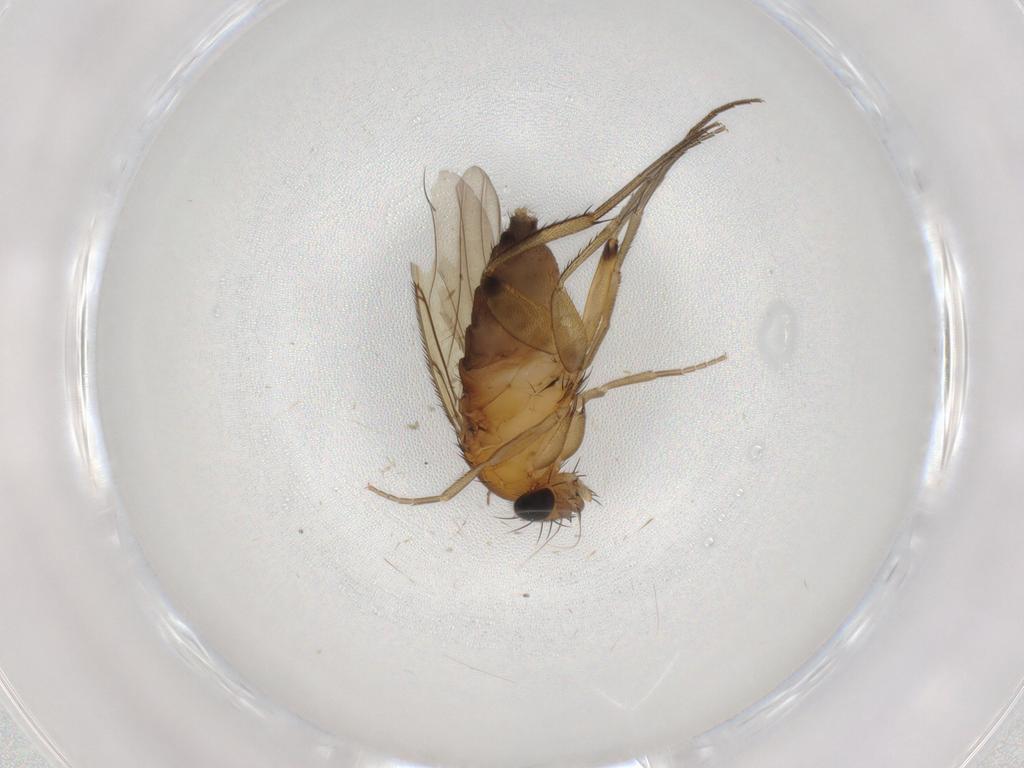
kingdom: Animalia
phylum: Arthropoda
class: Insecta
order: Diptera
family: Phoridae
